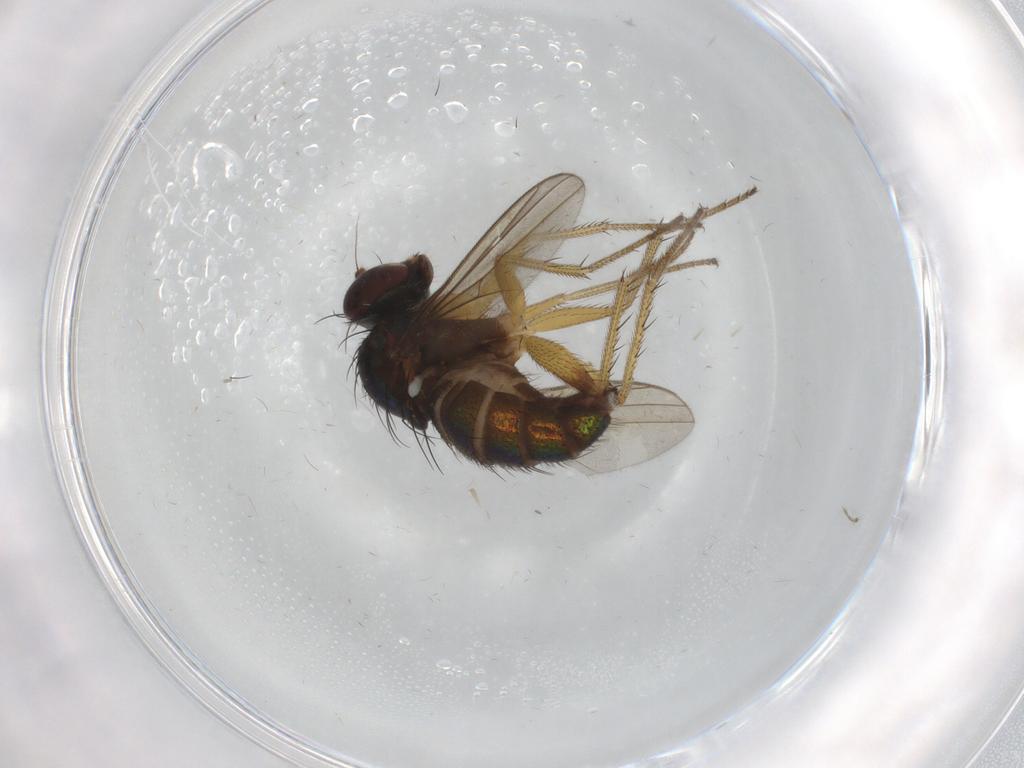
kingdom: Animalia
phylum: Arthropoda
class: Insecta
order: Diptera
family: Dolichopodidae
